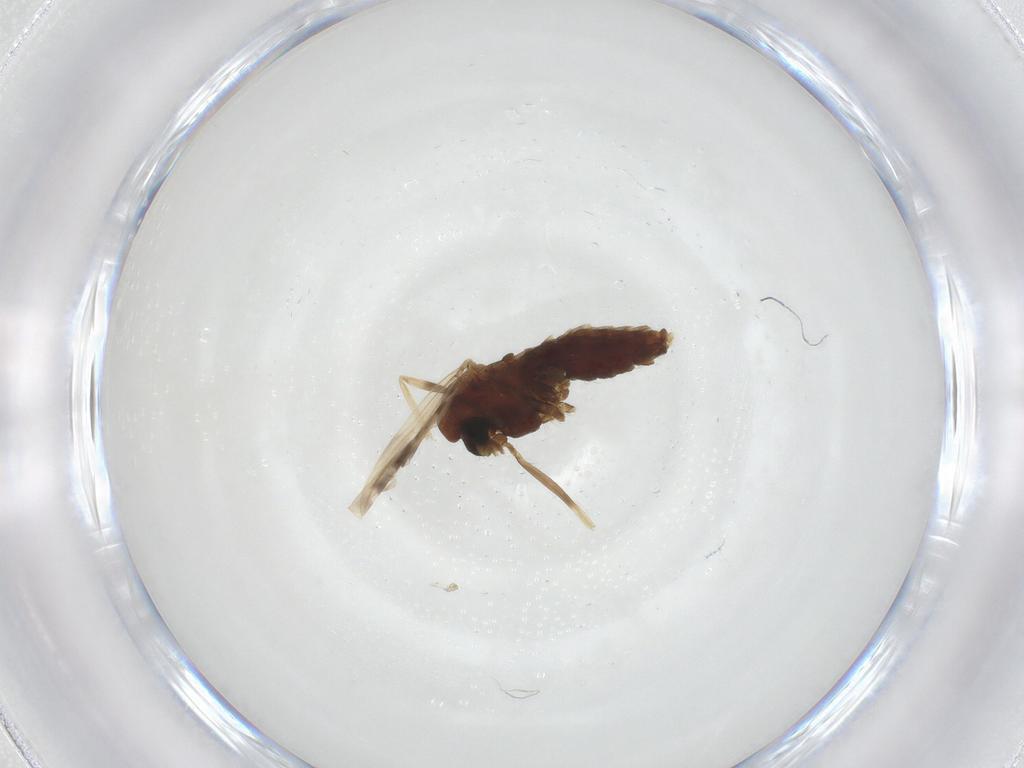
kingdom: Animalia
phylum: Arthropoda
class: Insecta
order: Diptera
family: Chironomidae
